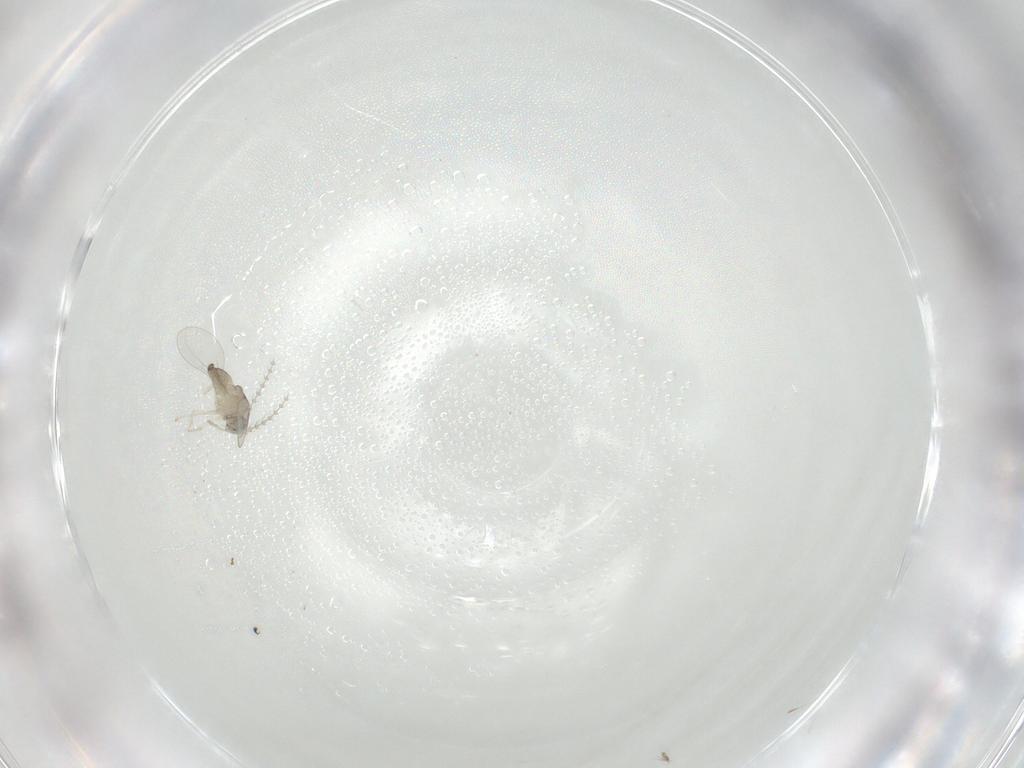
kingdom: Animalia
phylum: Arthropoda
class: Insecta
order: Diptera
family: Cecidomyiidae
